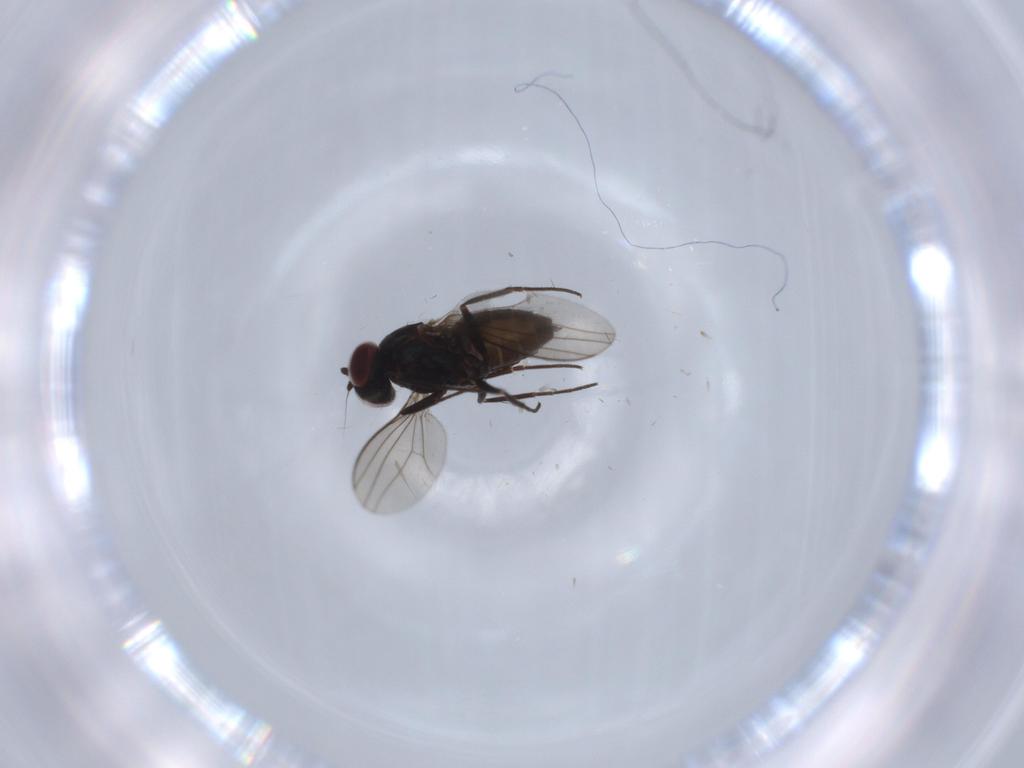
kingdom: Animalia
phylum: Arthropoda
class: Insecta
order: Diptera
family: Dolichopodidae
